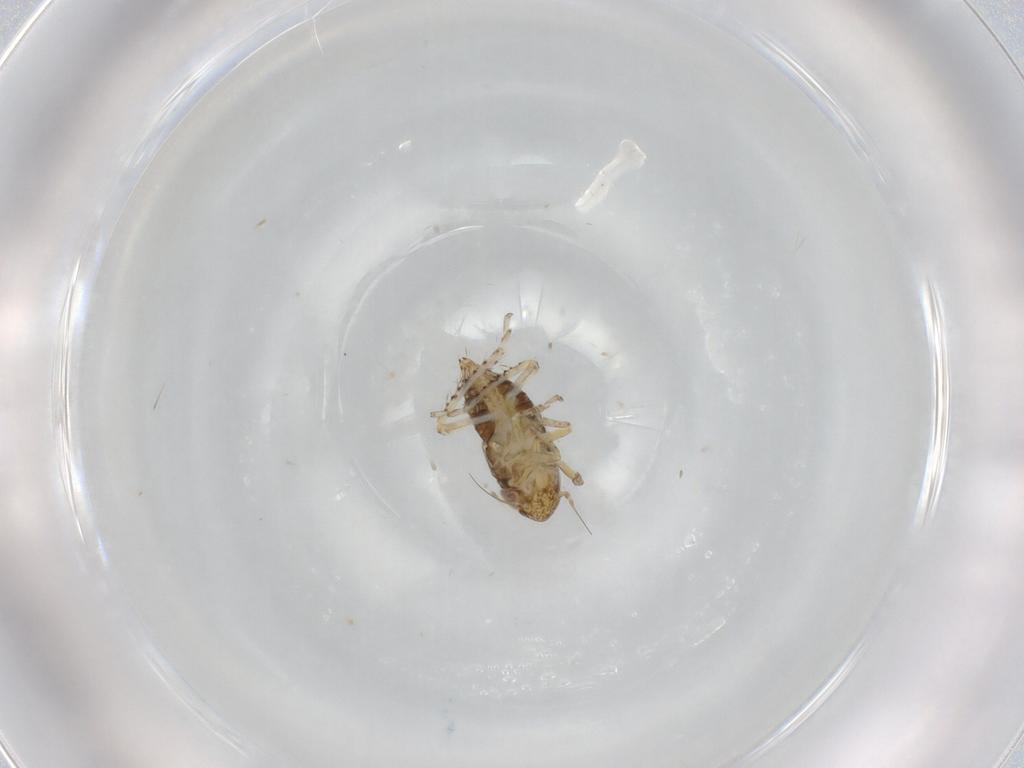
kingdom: Animalia
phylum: Arthropoda
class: Insecta
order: Hemiptera
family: Cicadellidae
